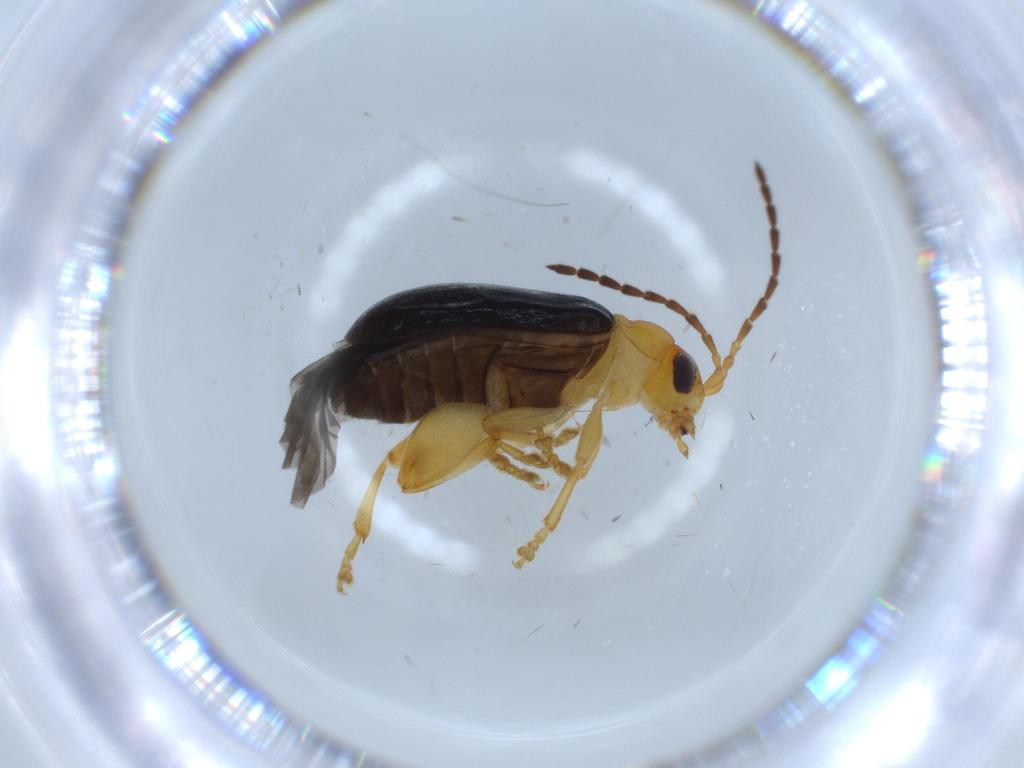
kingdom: Animalia
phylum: Arthropoda
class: Insecta
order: Coleoptera
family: Chrysomelidae
